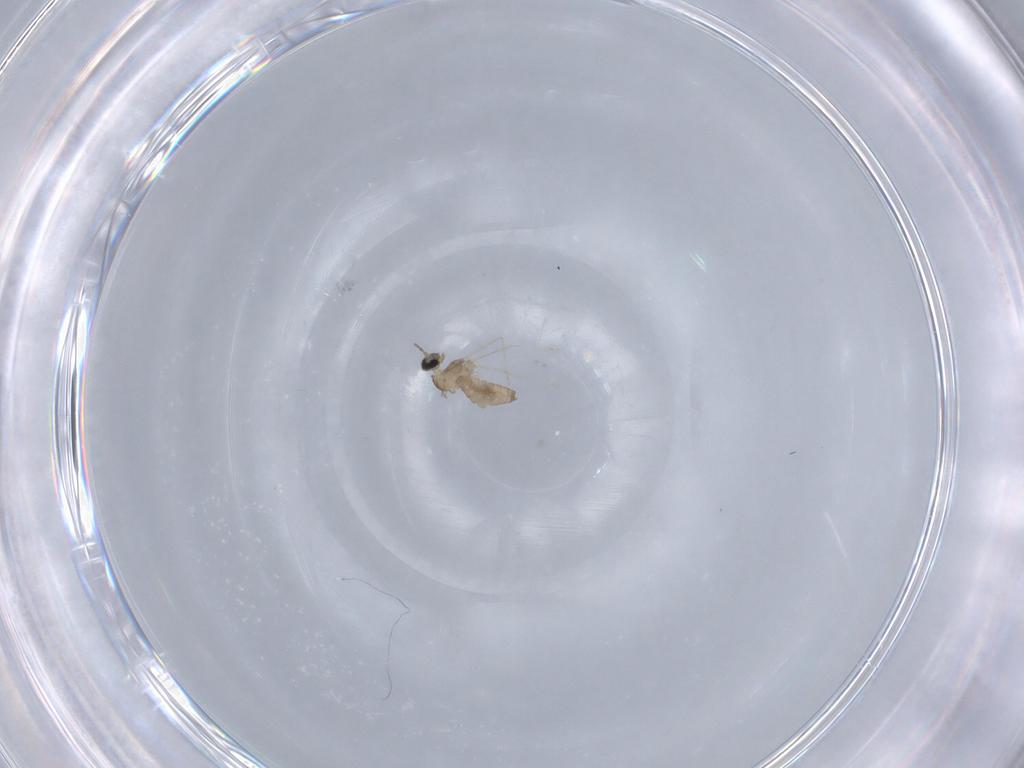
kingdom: Animalia
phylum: Arthropoda
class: Insecta
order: Diptera
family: Cecidomyiidae
